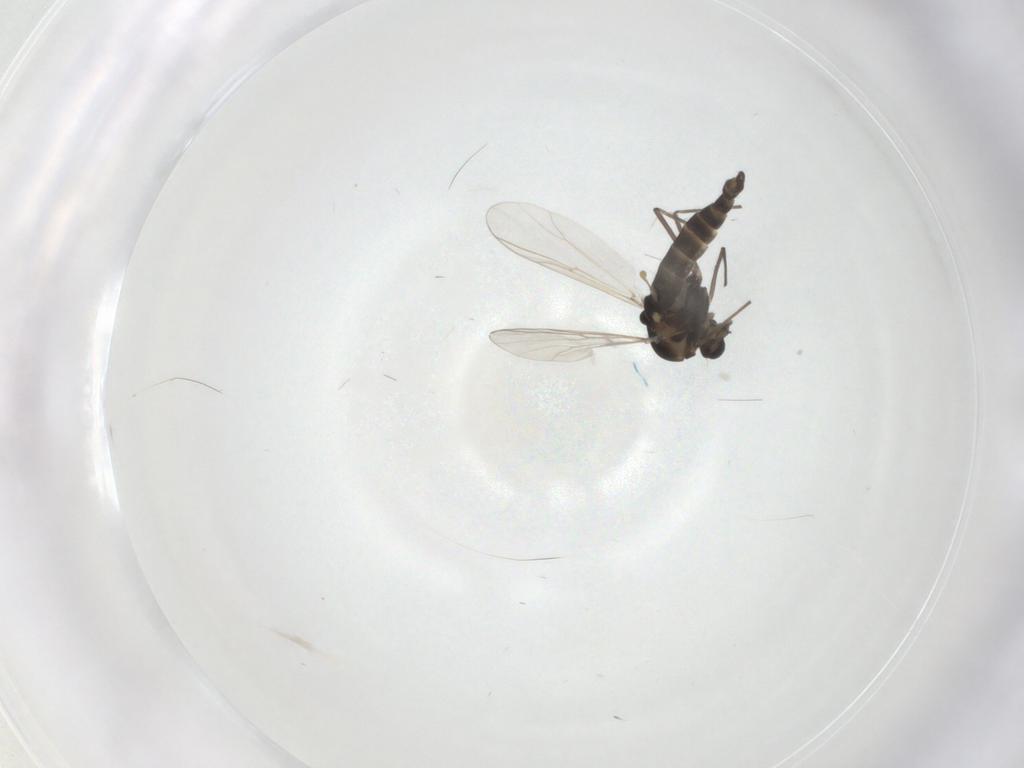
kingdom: Animalia
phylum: Arthropoda
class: Insecta
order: Diptera
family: Chironomidae
